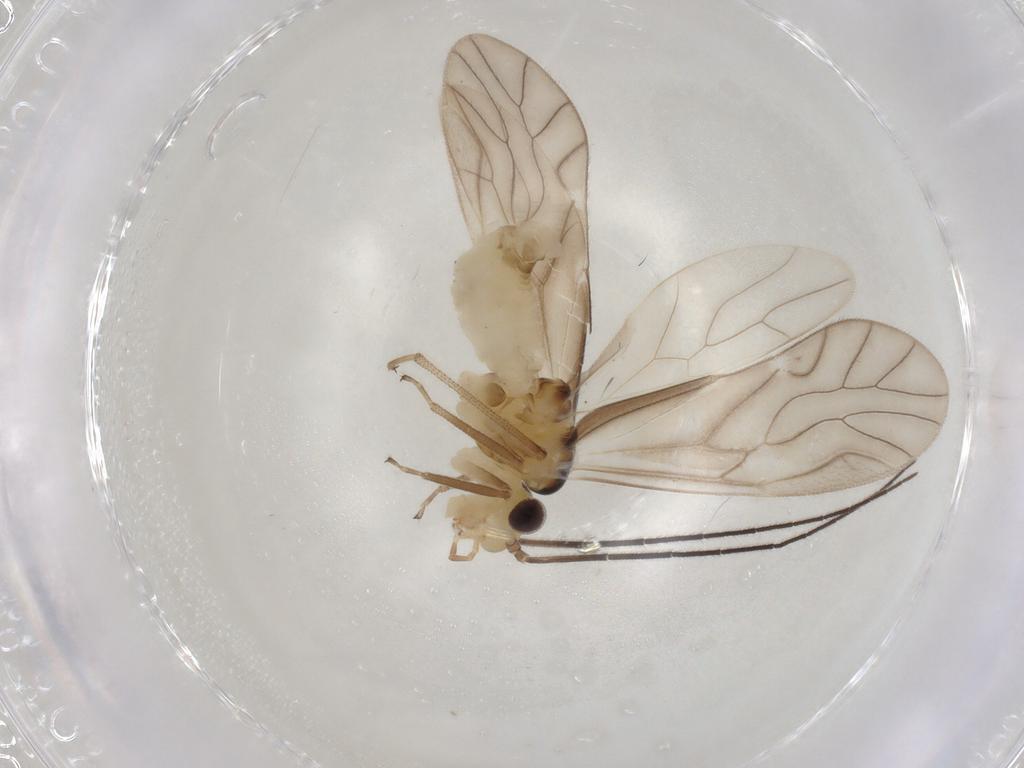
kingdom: Animalia
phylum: Arthropoda
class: Insecta
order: Psocodea
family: Caeciliusidae
